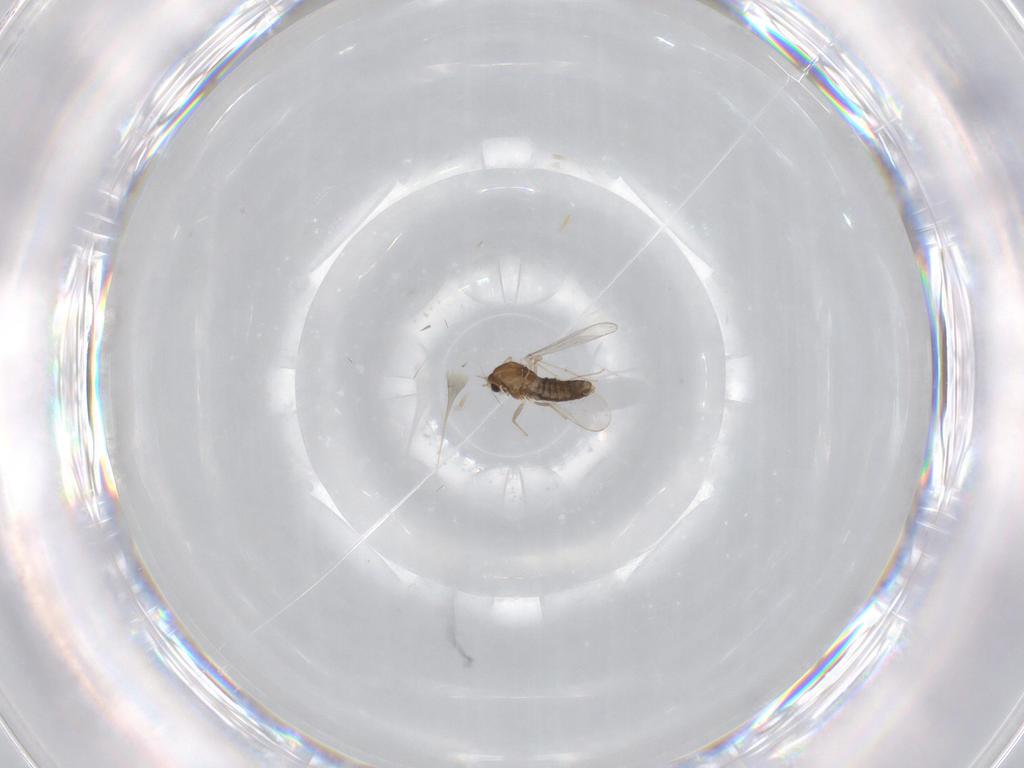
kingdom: Animalia
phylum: Arthropoda
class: Insecta
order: Diptera
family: Chironomidae
